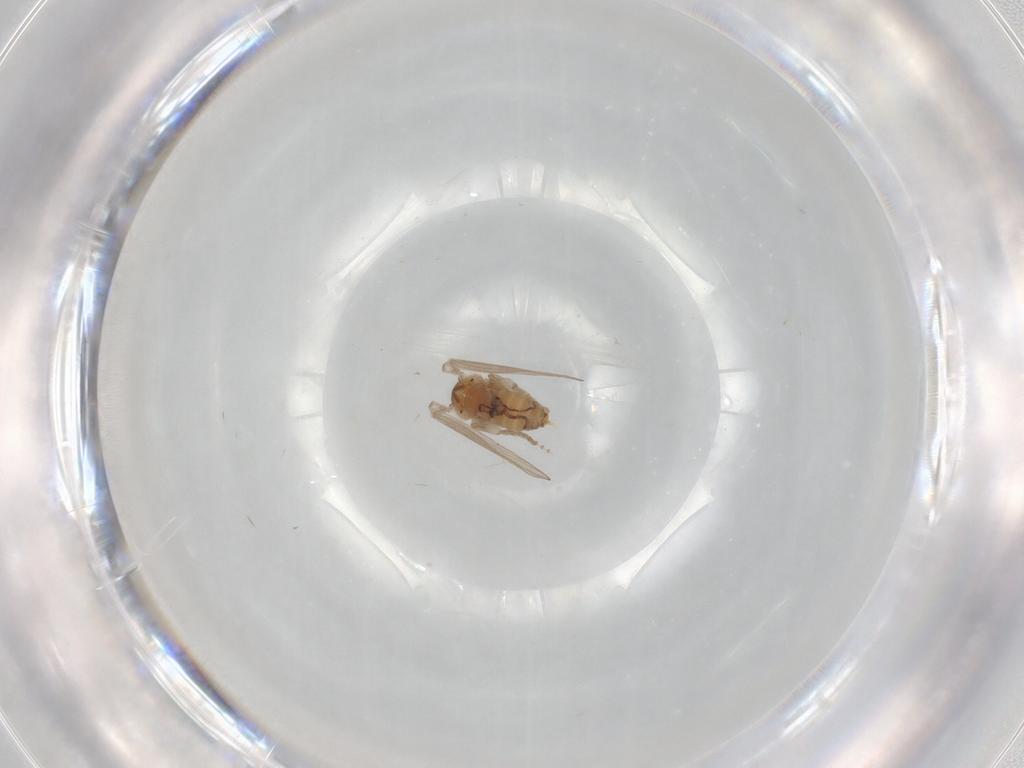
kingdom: Animalia
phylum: Arthropoda
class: Insecta
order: Diptera
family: Psychodidae
